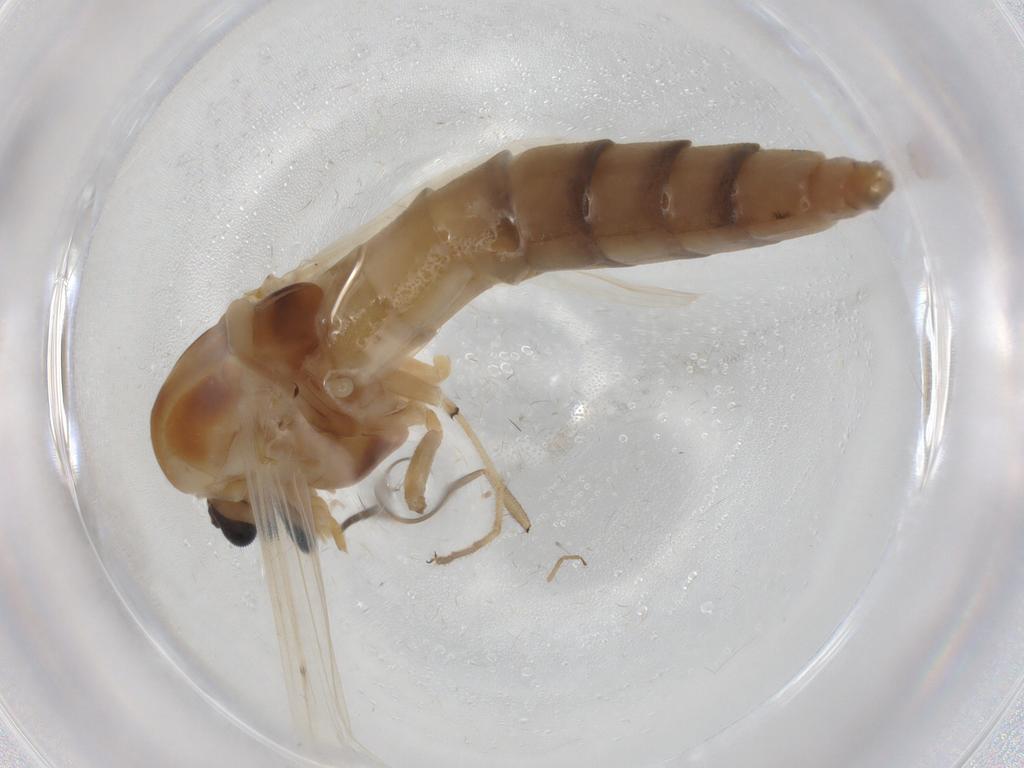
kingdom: Animalia
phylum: Arthropoda
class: Insecta
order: Diptera
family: Chironomidae
